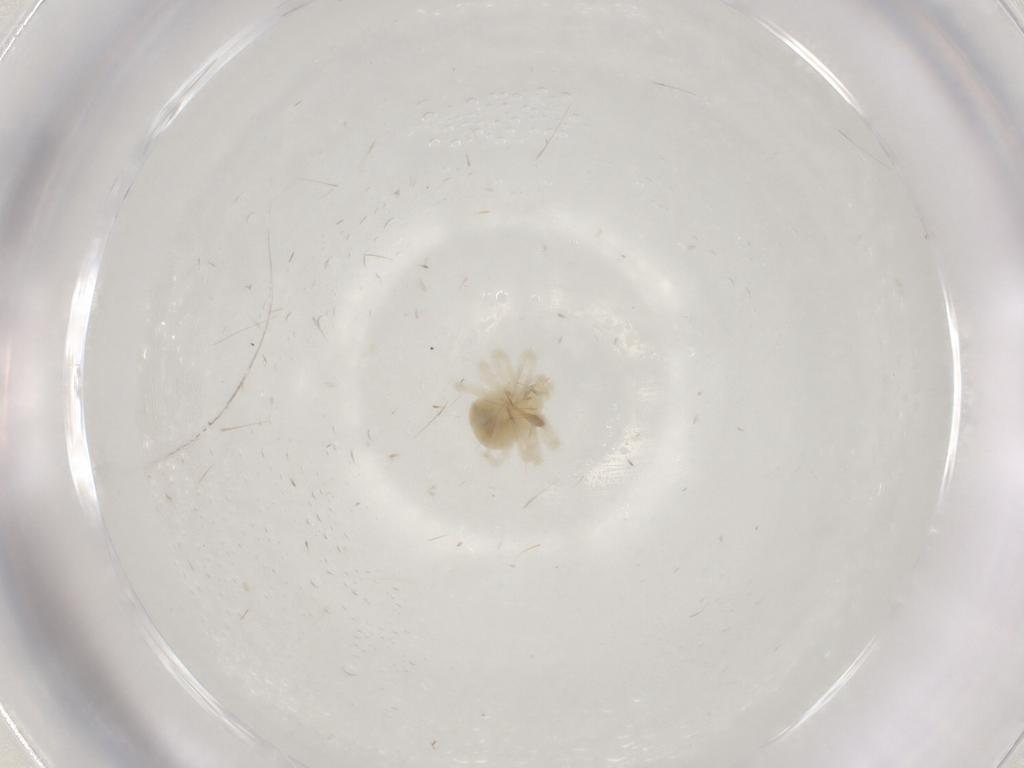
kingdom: Animalia
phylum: Arthropoda
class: Arachnida
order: Trombidiformes
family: Anystidae
